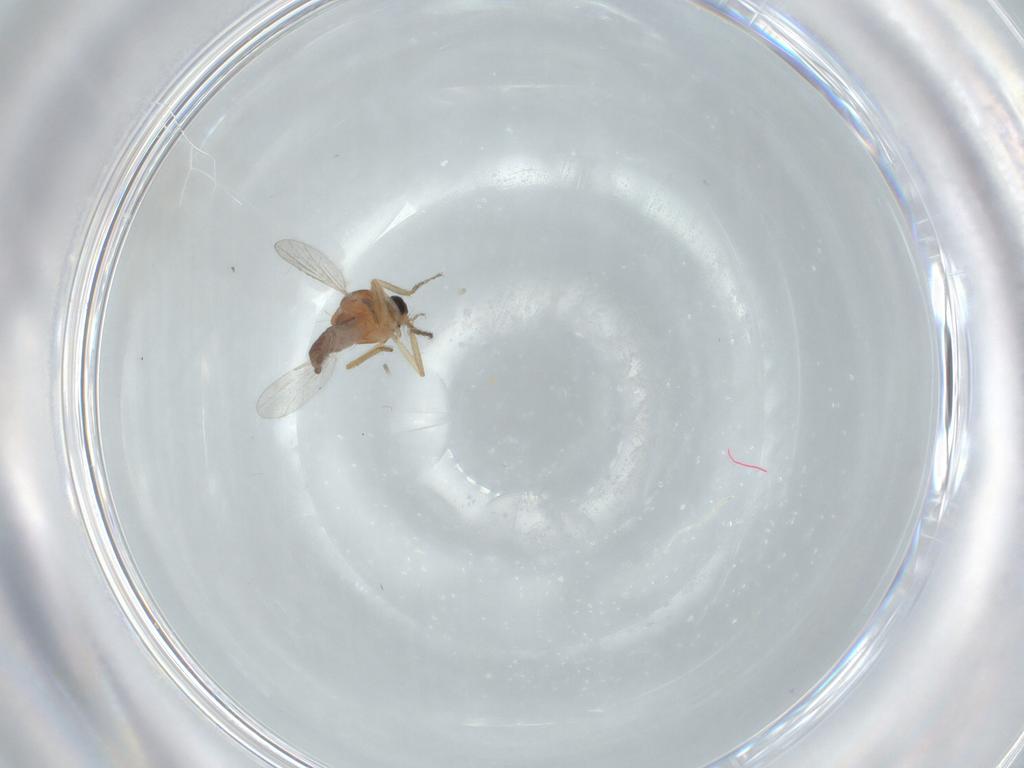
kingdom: Animalia
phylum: Arthropoda
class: Insecta
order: Diptera
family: Ceratopogonidae
